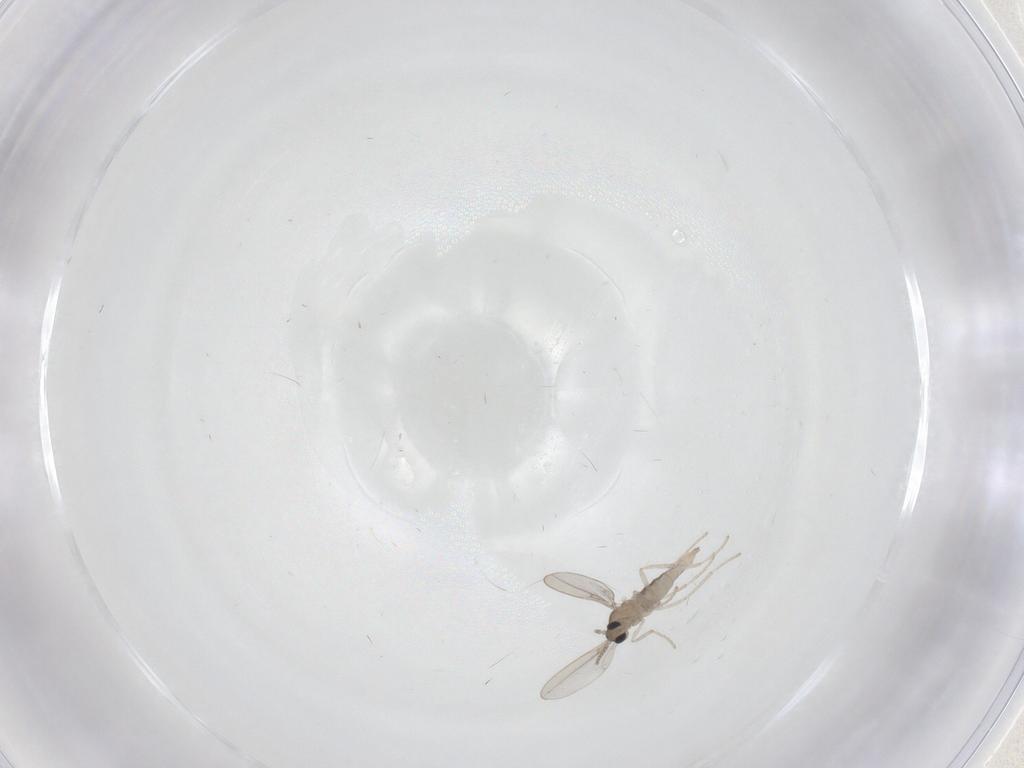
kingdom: Animalia
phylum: Arthropoda
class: Insecta
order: Diptera
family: Cecidomyiidae
